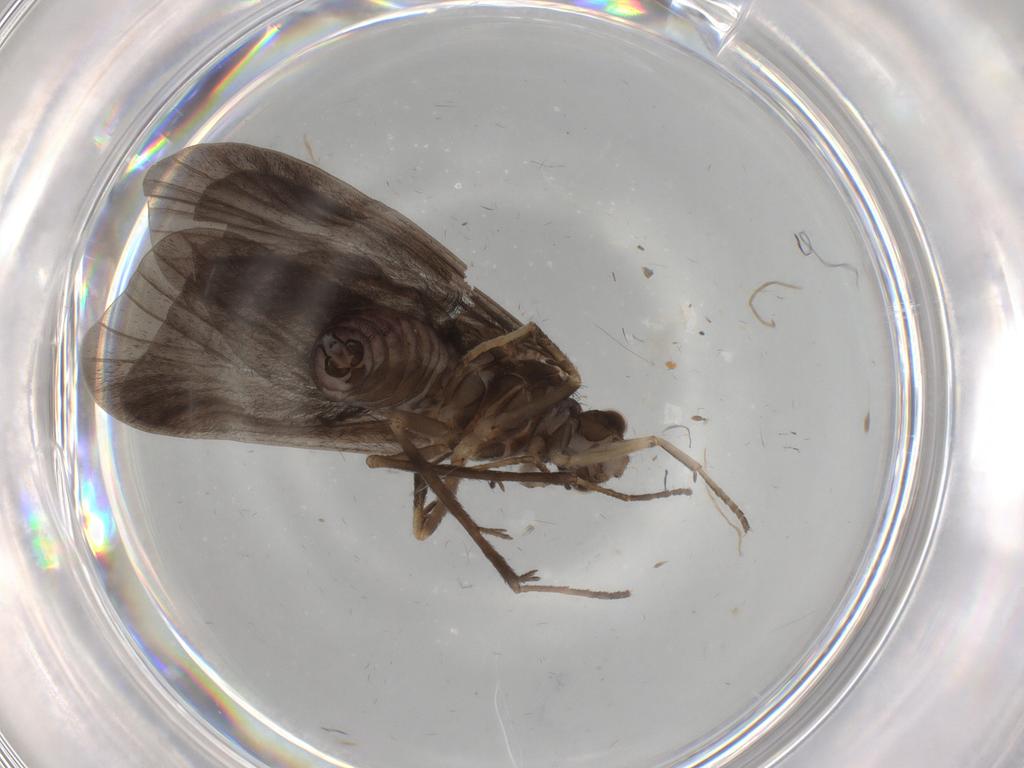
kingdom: Animalia
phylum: Arthropoda
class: Insecta
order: Trichoptera
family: Hydropsychidae
